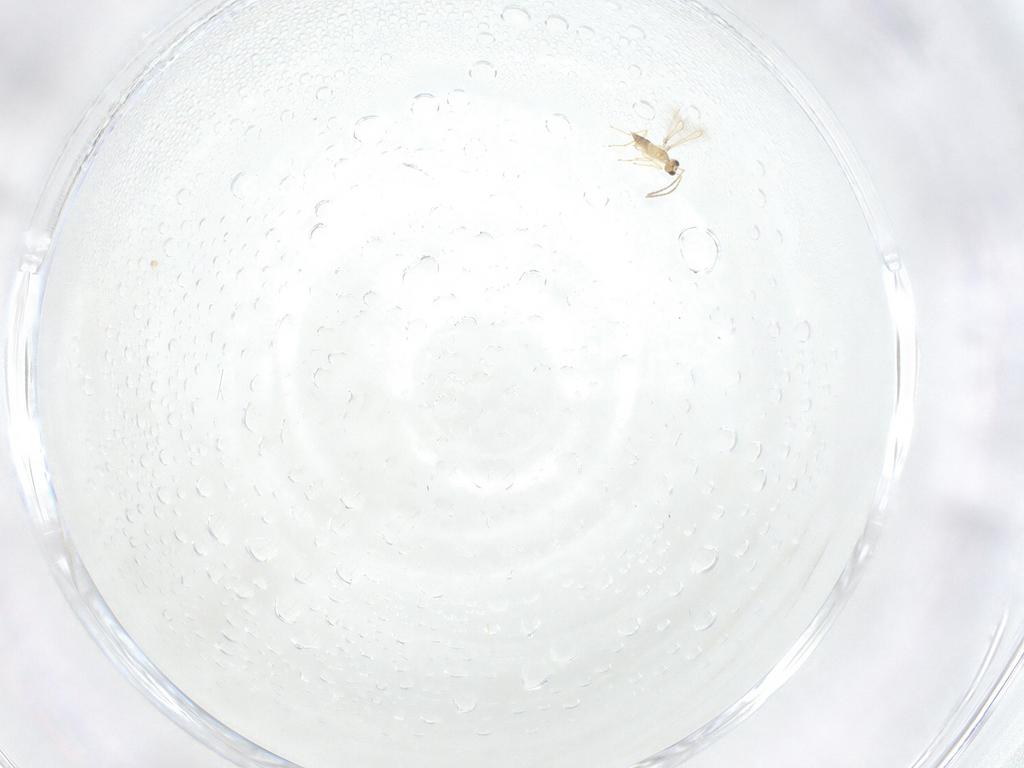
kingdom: Animalia
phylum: Arthropoda
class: Insecta
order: Hymenoptera
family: Mymaridae
